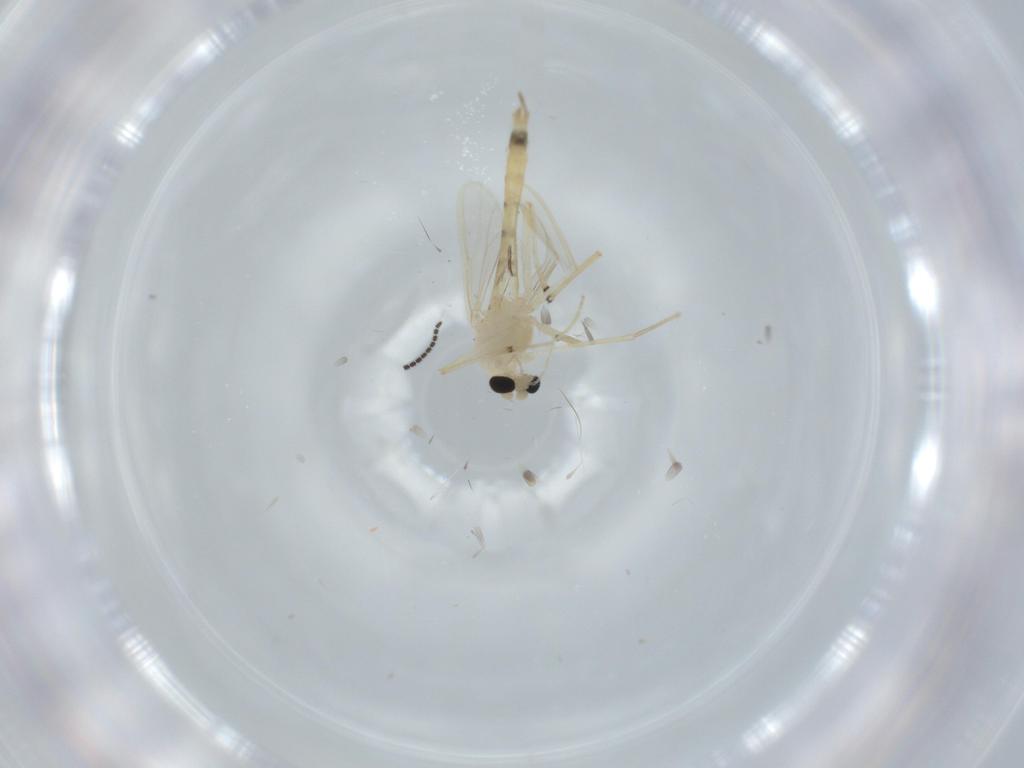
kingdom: Animalia
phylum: Arthropoda
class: Insecta
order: Diptera
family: Sciaridae
